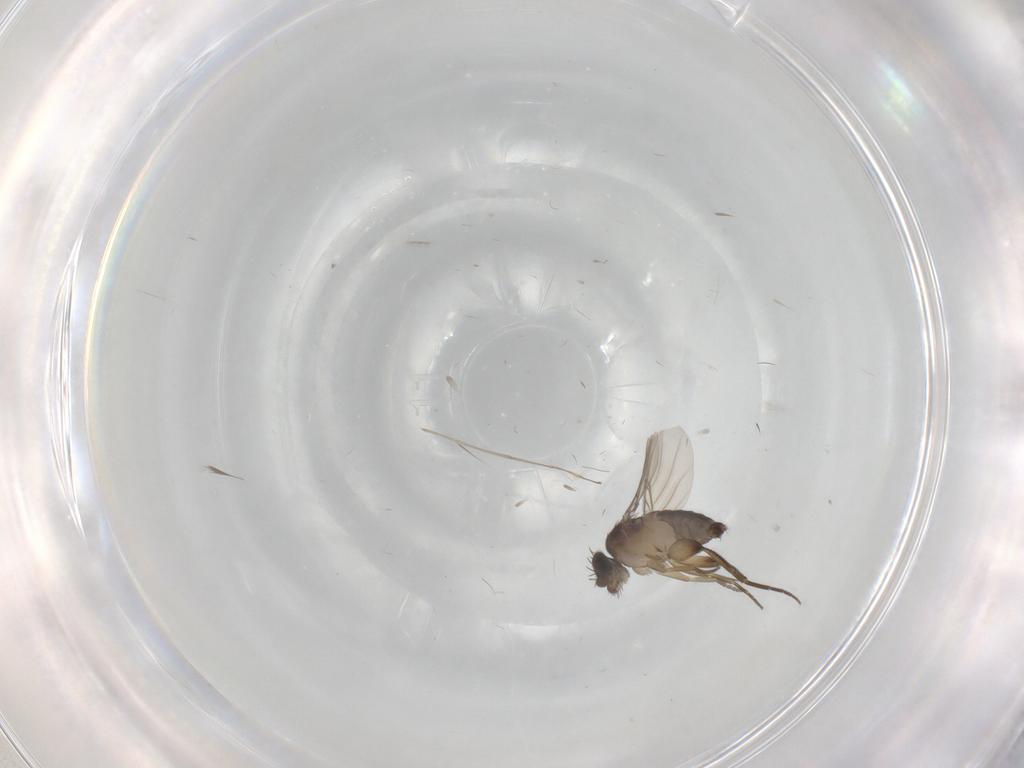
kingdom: Animalia
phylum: Arthropoda
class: Insecta
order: Diptera
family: Phoridae
